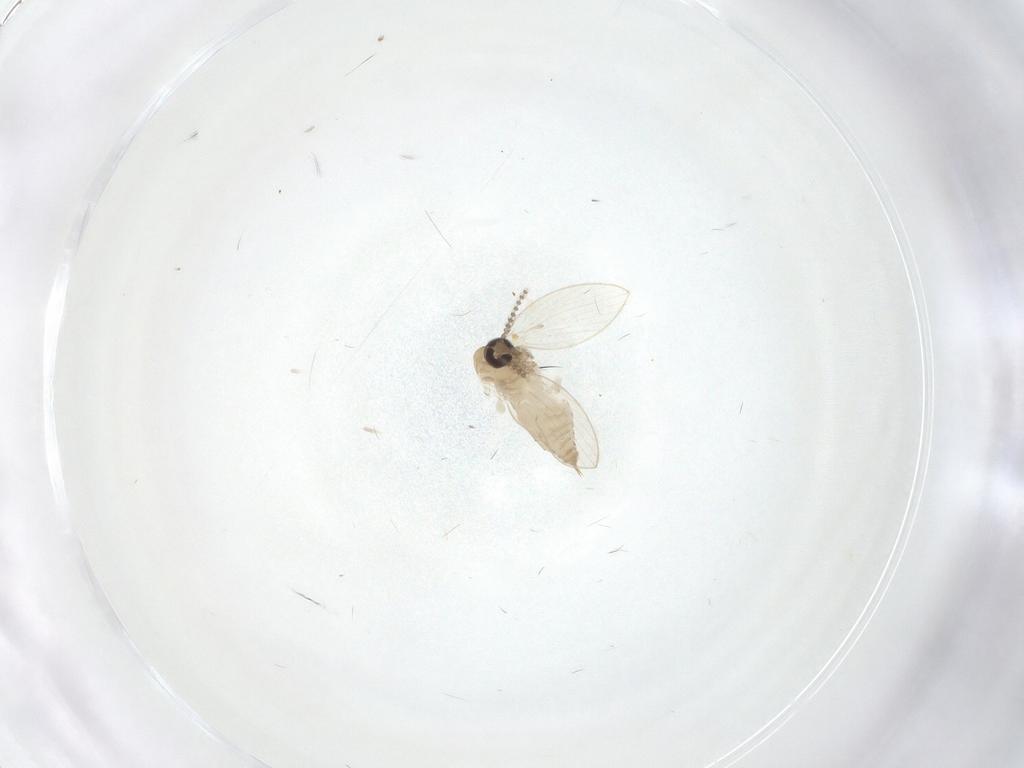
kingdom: Animalia
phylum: Arthropoda
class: Insecta
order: Diptera
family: Psychodidae
